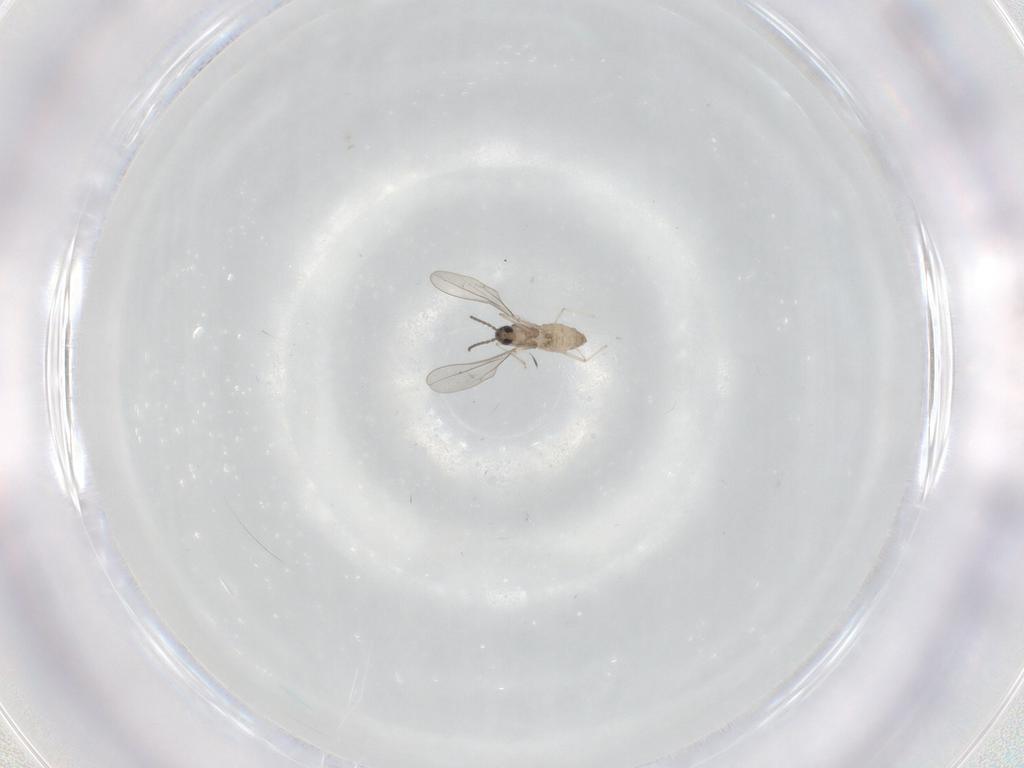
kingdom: Animalia
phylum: Arthropoda
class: Insecta
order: Diptera
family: Cecidomyiidae
